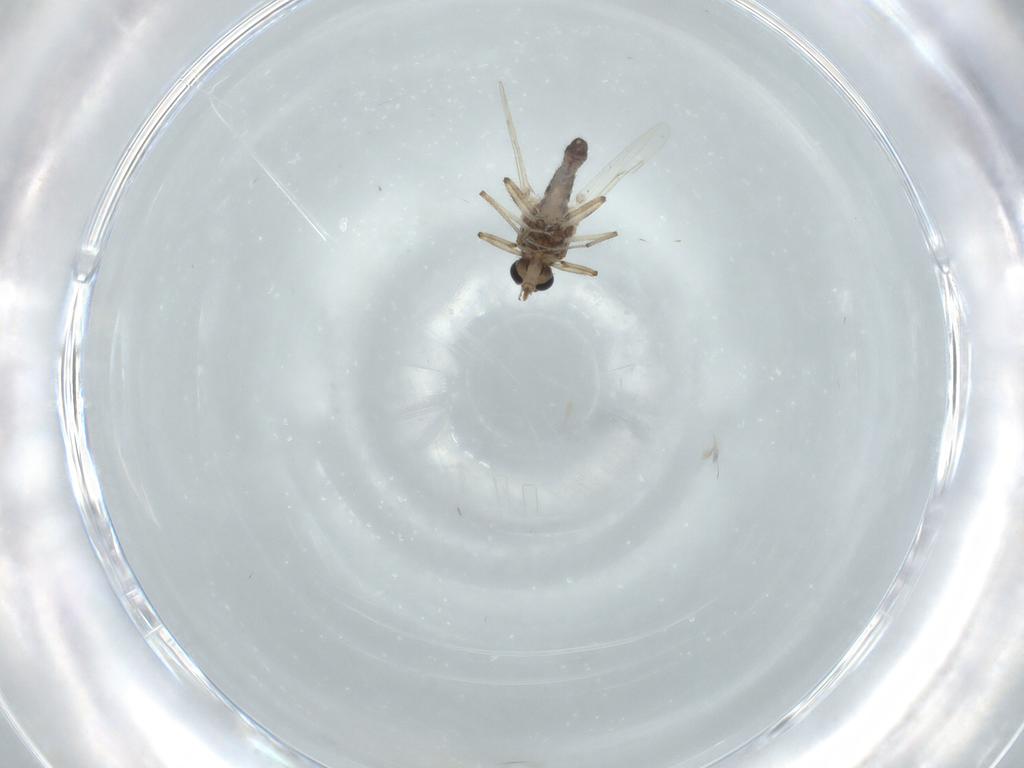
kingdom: Animalia
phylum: Arthropoda
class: Insecta
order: Diptera
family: Ceratopogonidae
